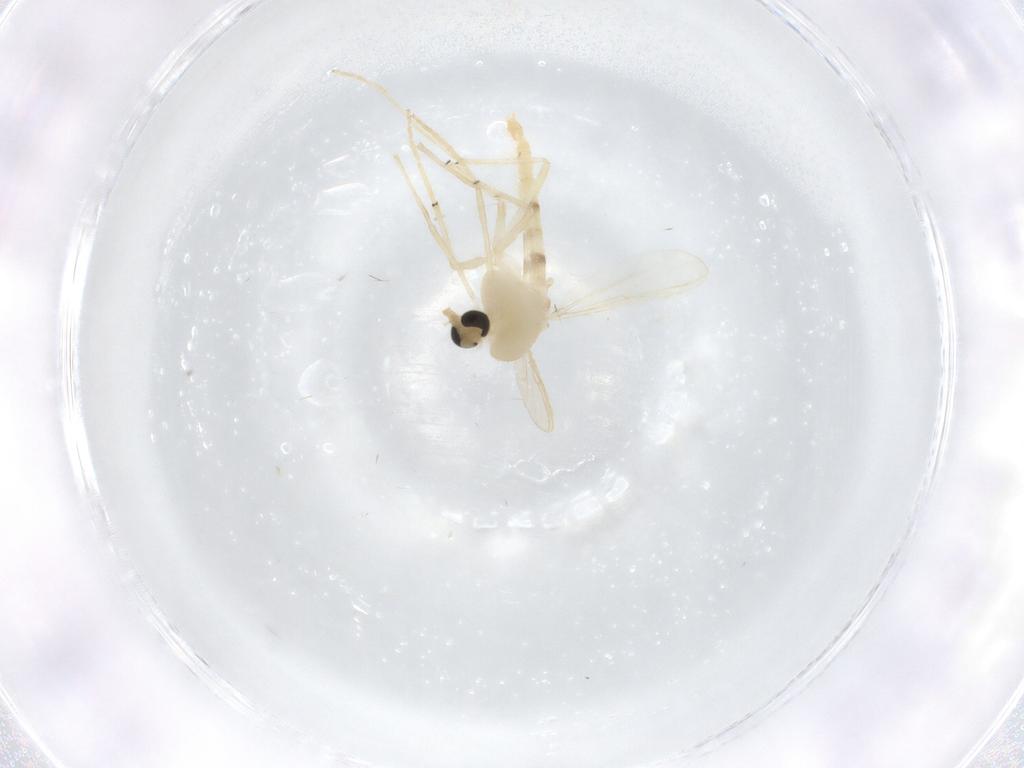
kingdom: Animalia
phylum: Arthropoda
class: Insecta
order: Diptera
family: Chironomidae
